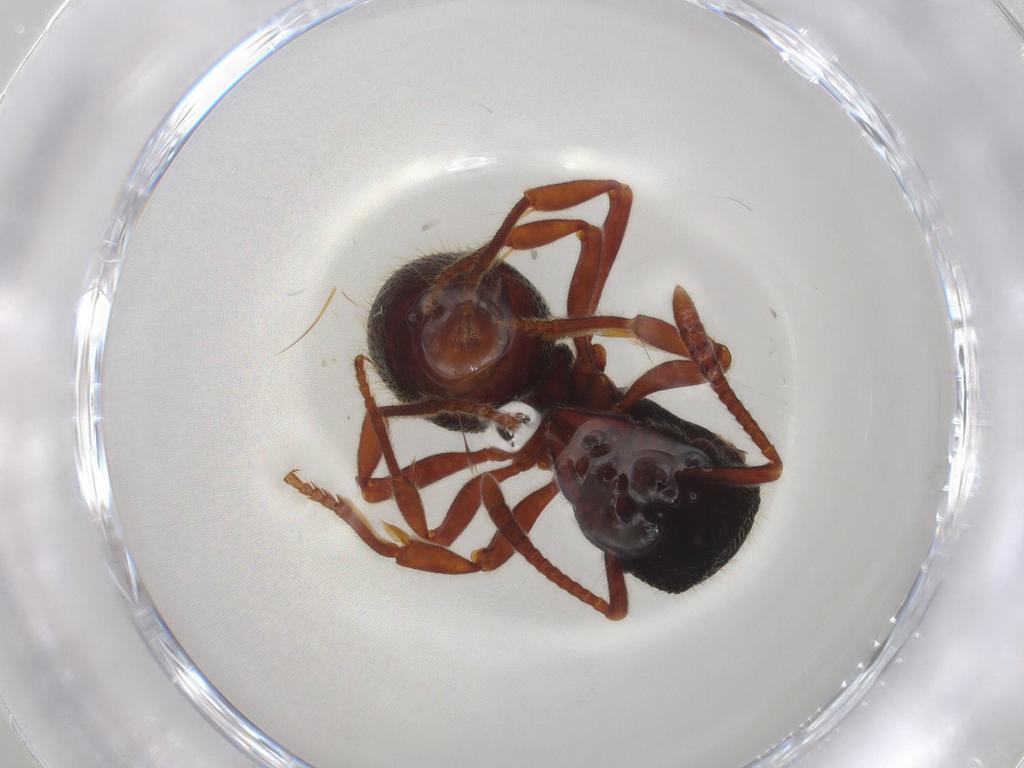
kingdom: Animalia
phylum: Arthropoda
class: Insecta
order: Hymenoptera
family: Formicidae
